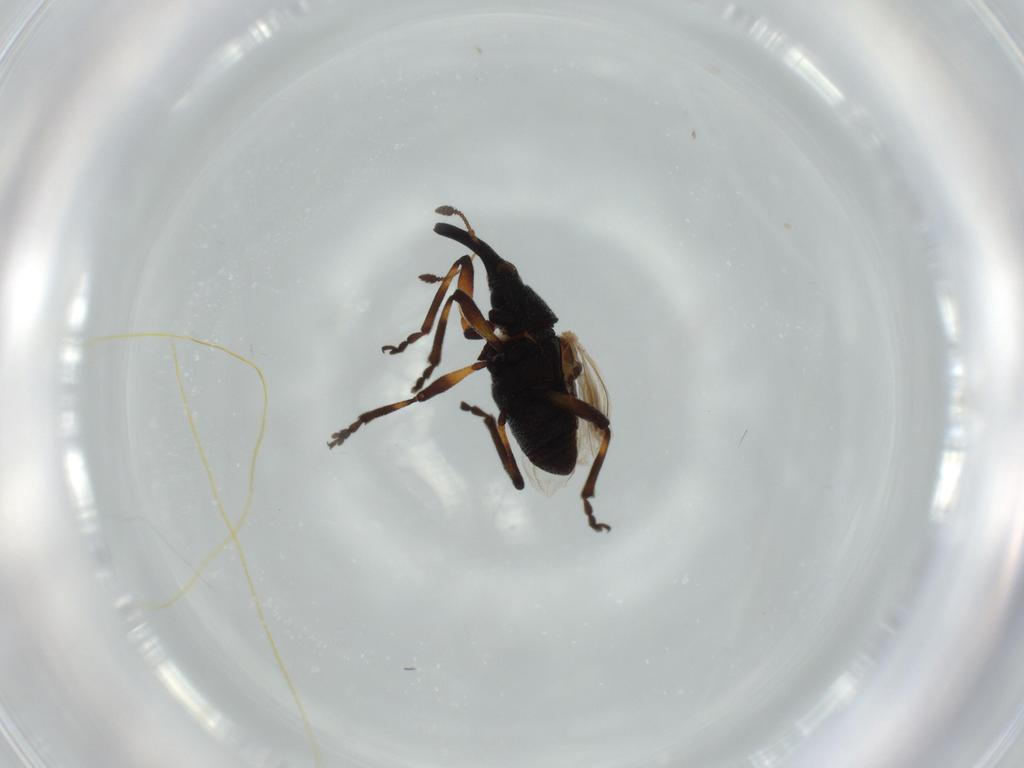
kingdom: Animalia
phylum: Arthropoda
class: Insecta
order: Coleoptera
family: Brentidae
